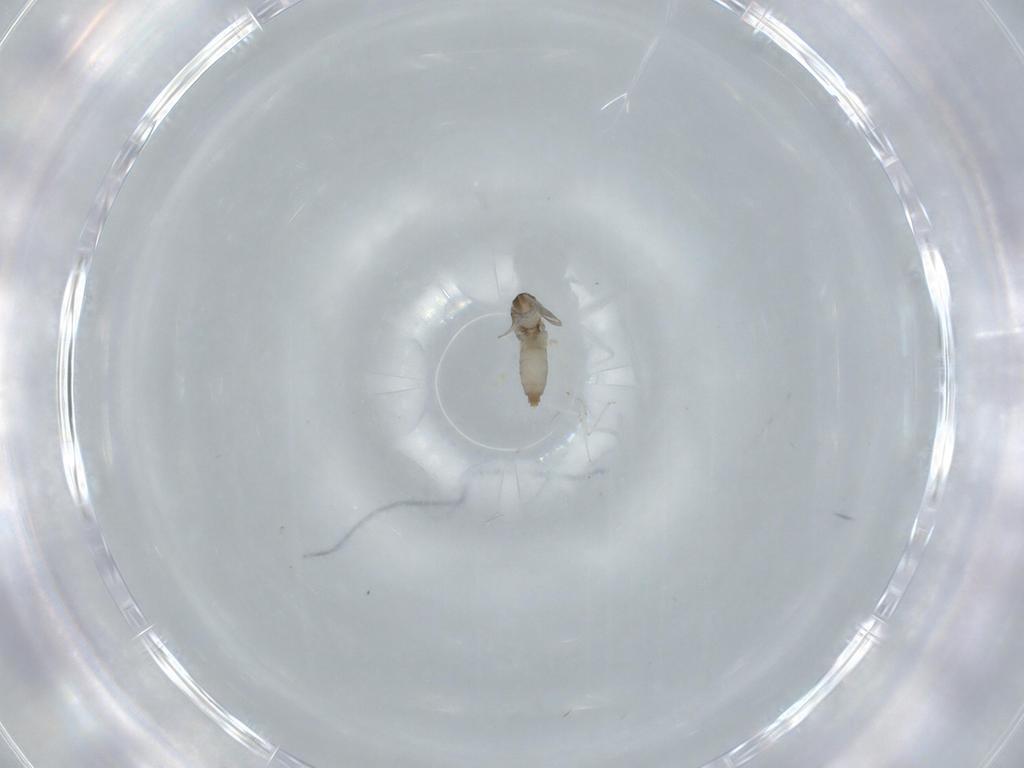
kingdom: Animalia
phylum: Arthropoda
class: Insecta
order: Diptera
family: Cecidomyiidae
